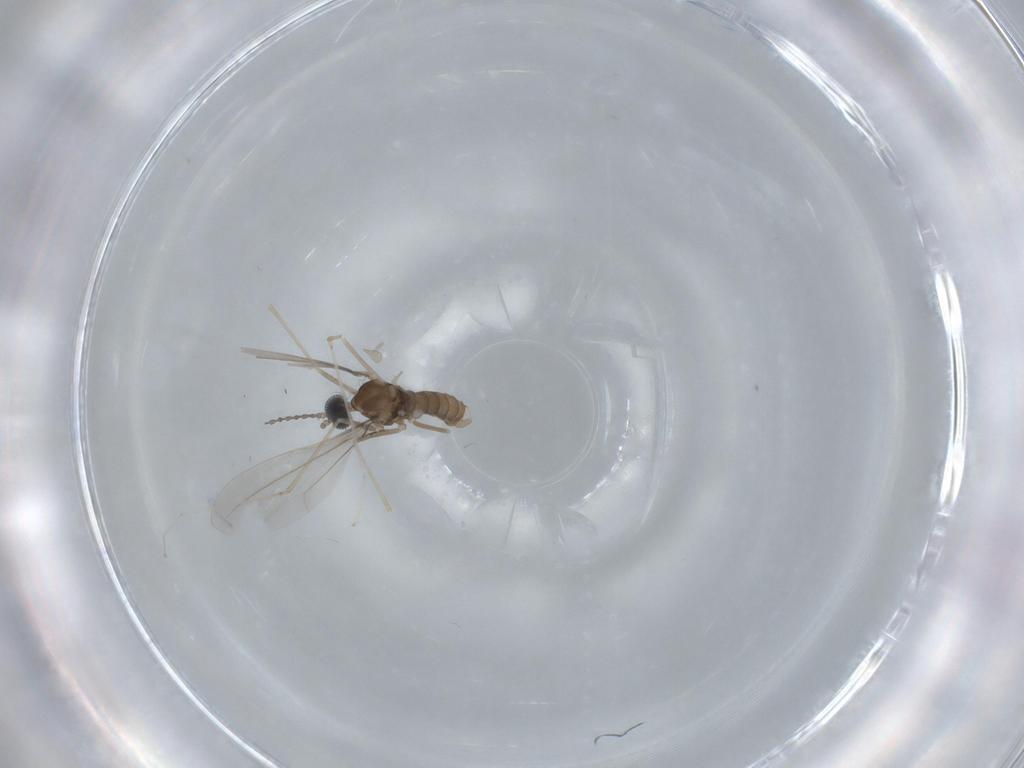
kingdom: Animalia
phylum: Arthropoda
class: Insecta
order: Diptera
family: Cecidomyiidae
